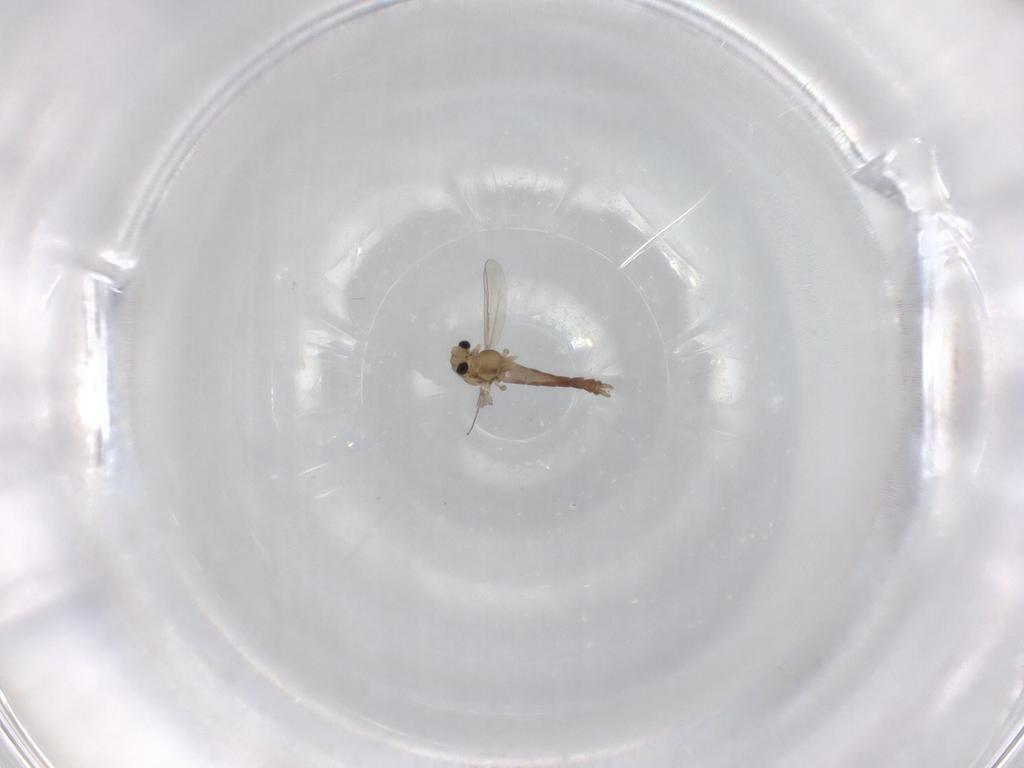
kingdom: Animalia
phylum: Arthropoda
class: Insecta
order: Diptera
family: Chironomidae
